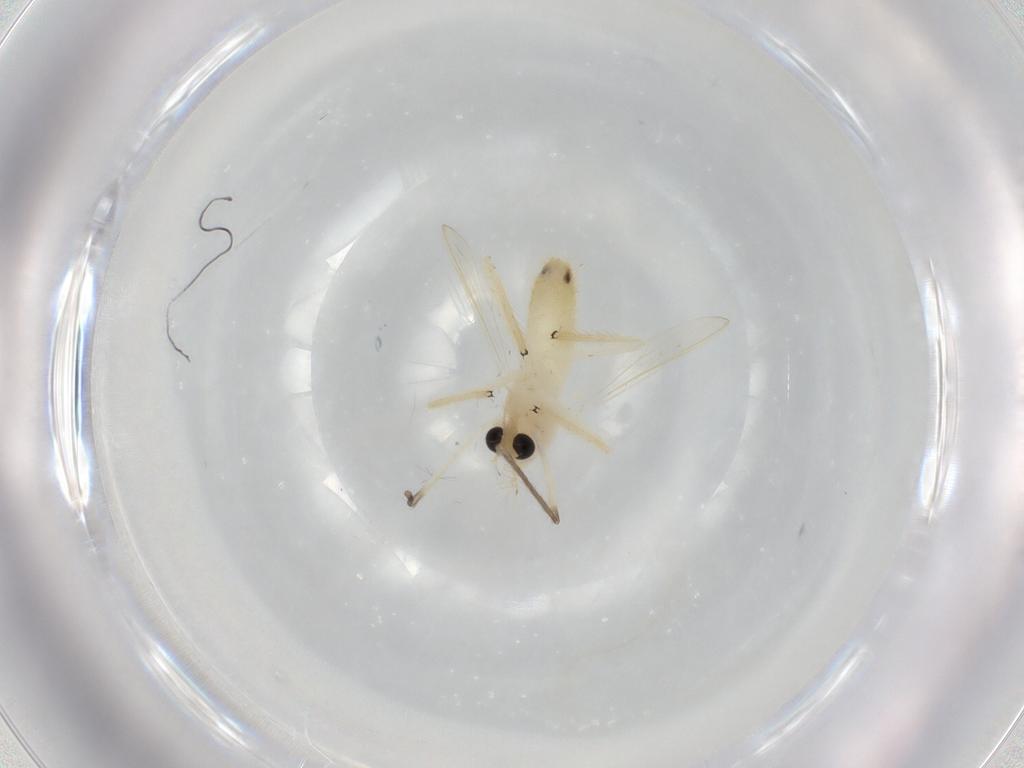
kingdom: Animalia
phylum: Arthropoda
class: Insecta
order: Diptera
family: Chironomidae
